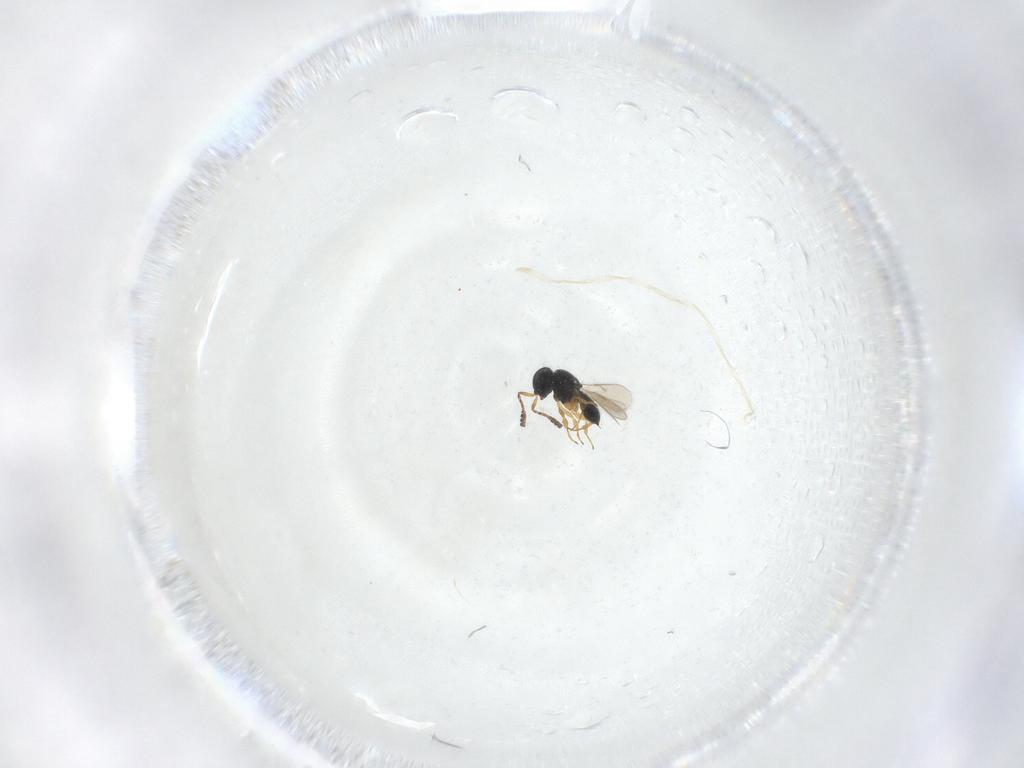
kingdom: Animalia
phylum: Arthropoda
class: Insecta
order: Hymenoptera
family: Scelionidae
